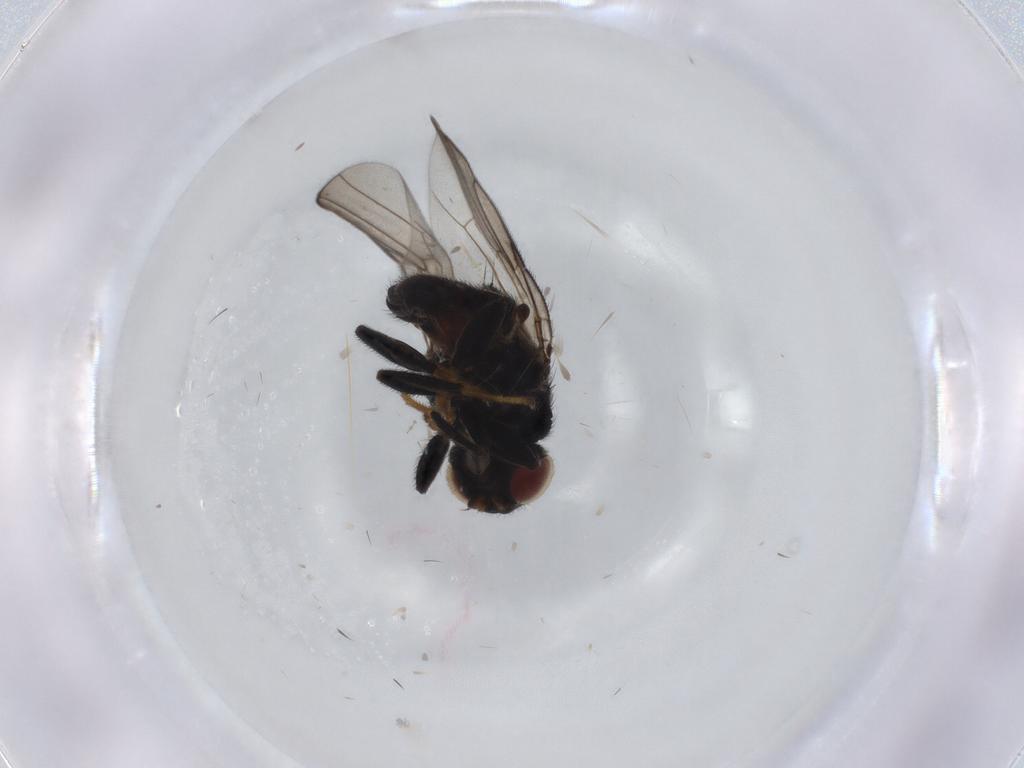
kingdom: Animalia
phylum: Arthropoda
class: Insecta
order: Diptera
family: Chloropidae
